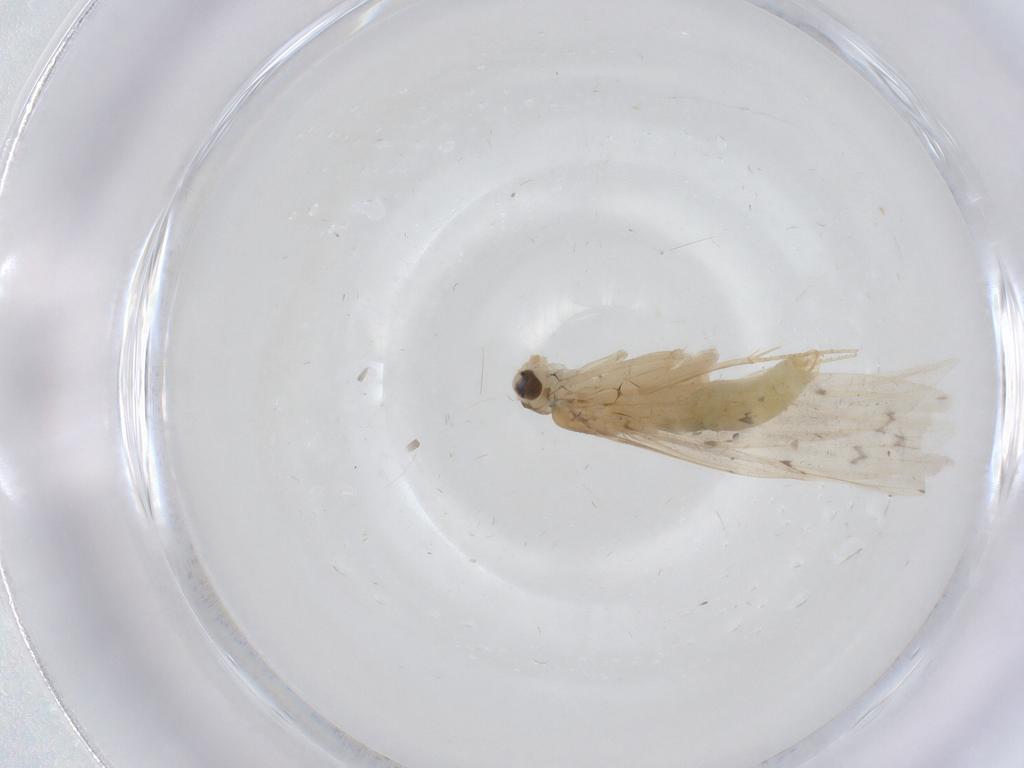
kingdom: Animalia
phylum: Arthropoda
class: Insecta
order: Trichoptera
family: Leptoceridae
